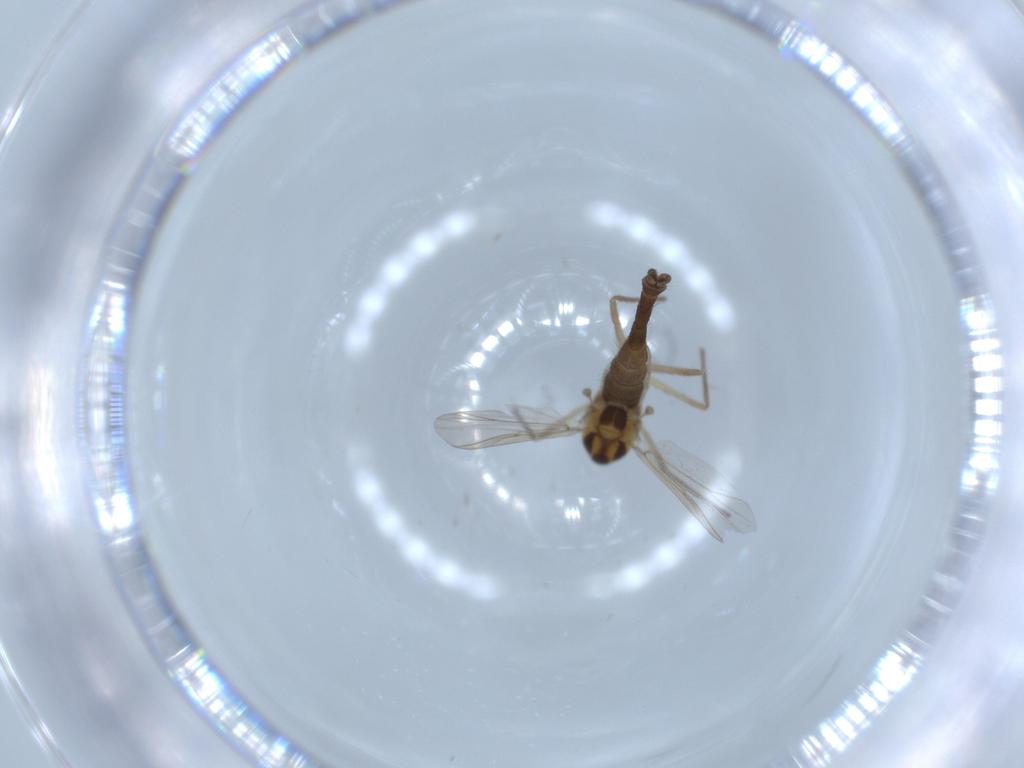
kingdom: Animalia
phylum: Arthropoda
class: Insecta
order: Diptera
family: Chironomidae
